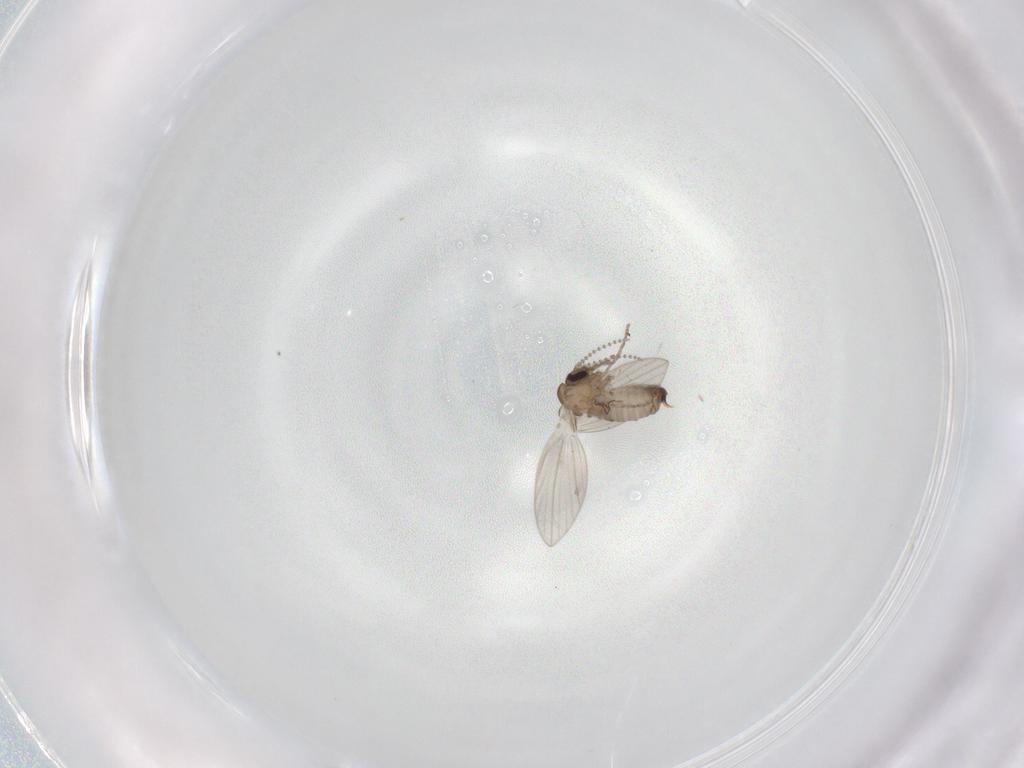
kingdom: Animalia
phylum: Arthropoda
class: Insecta
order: Diptera
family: Psychodidae
